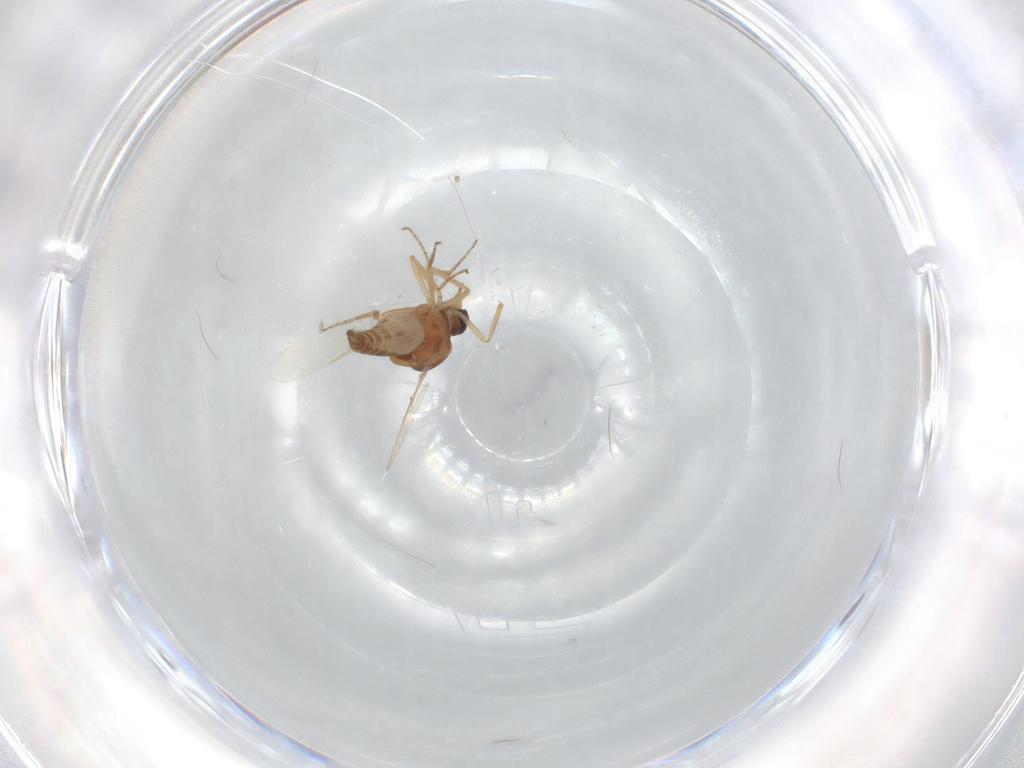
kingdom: Animalia
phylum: Arthropoda
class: Insecta
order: Diptera
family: Ceratopogonidae
